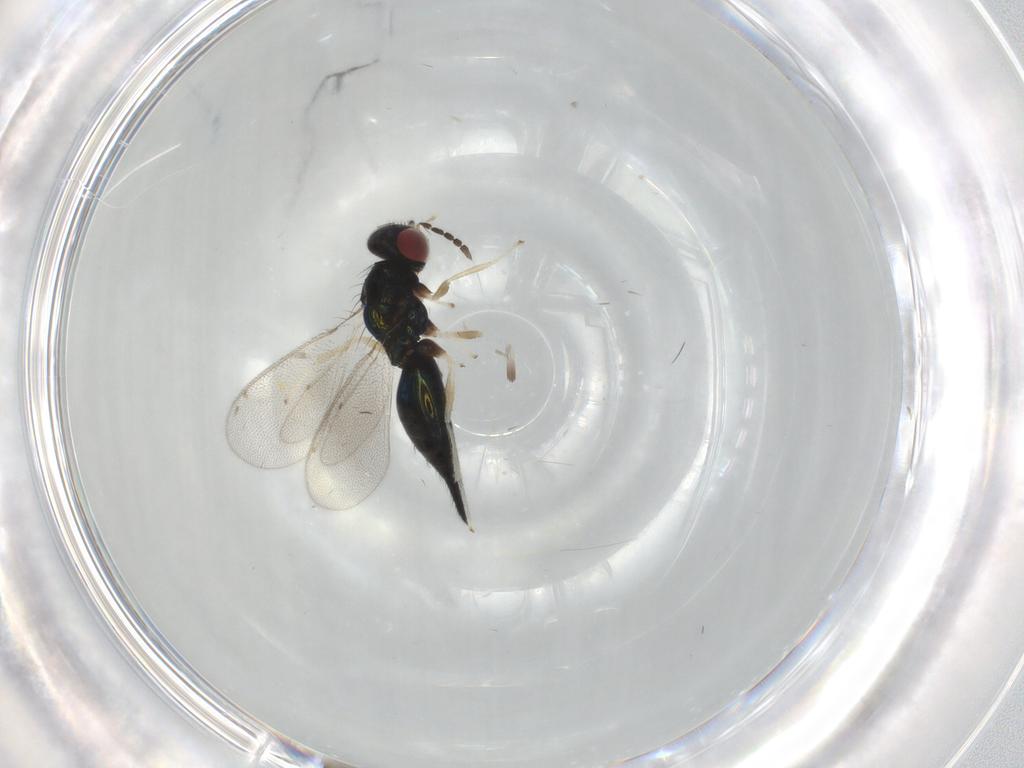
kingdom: Animalia
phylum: Arthropoda
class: Insecta
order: Hymenoptera
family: Eulophidae
